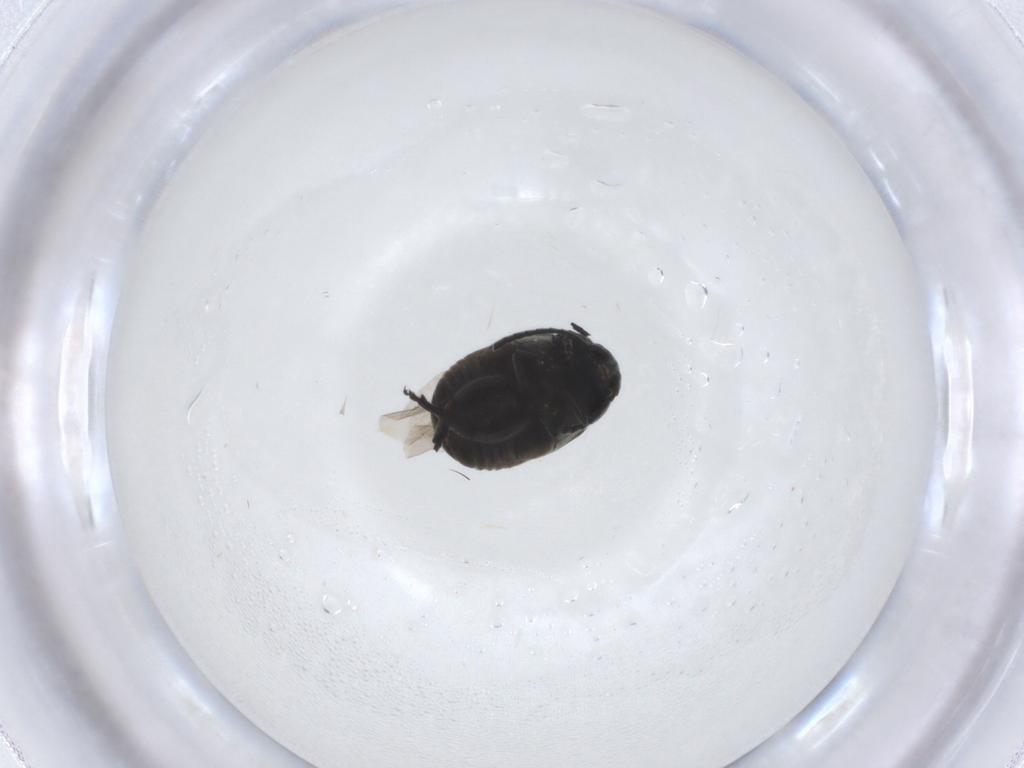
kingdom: Animalia
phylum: Arthropoda
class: Insecta
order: Coleoptera
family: Chrysomelidae
